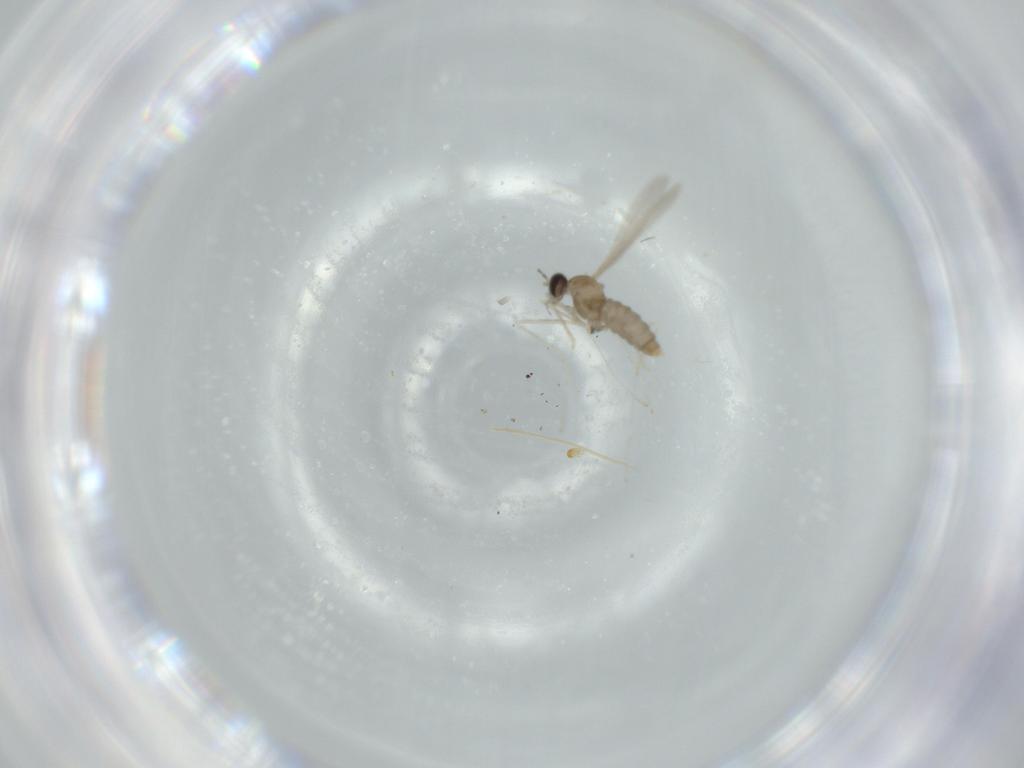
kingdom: Animalia
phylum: Arthropoda
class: Insecta
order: Diptera
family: Cecidomyiidae
